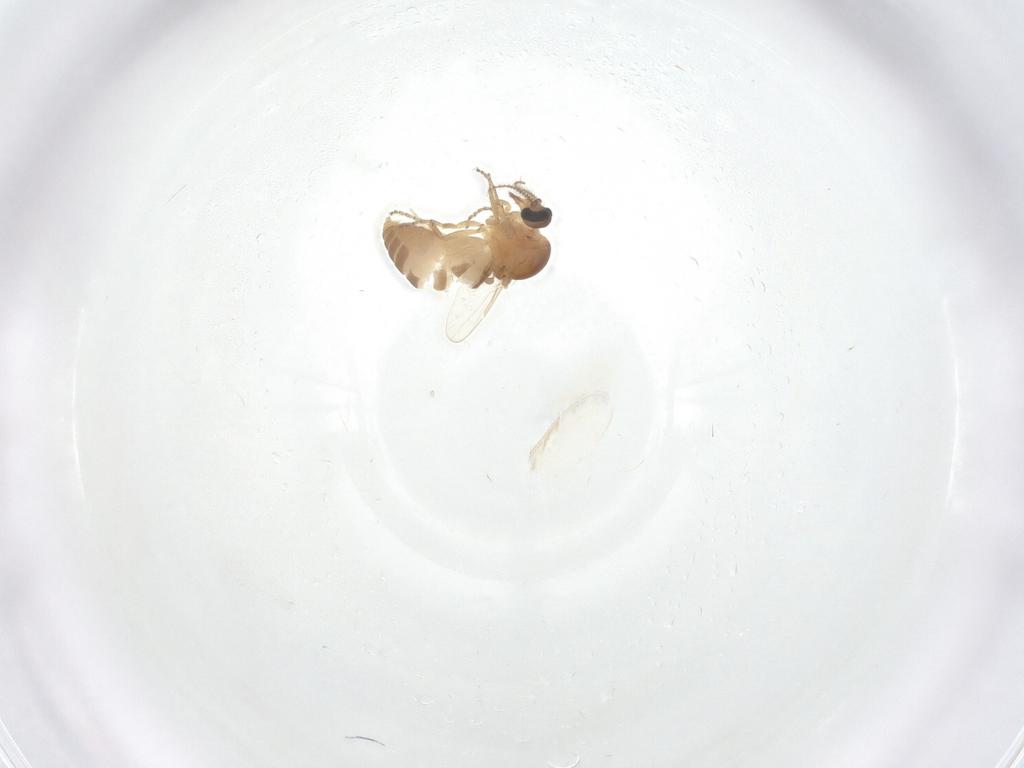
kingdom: Animalia
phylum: Arthropoda
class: Insecta
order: Diptera
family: Ceratopogonidae
